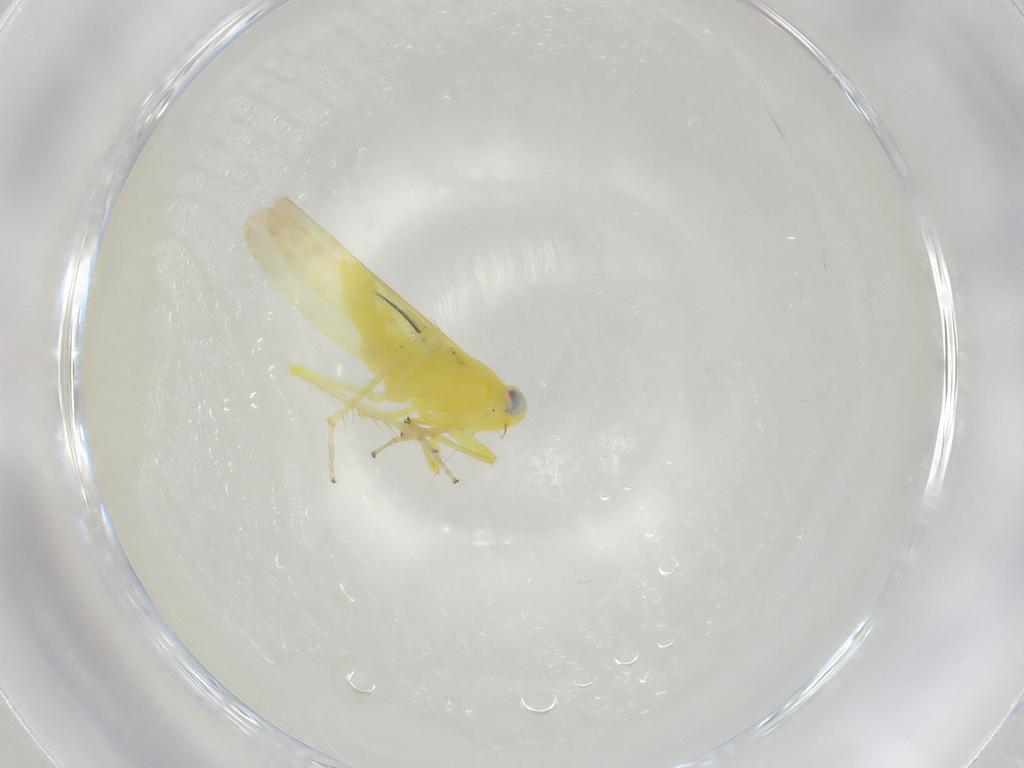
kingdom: Animalia
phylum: Arthropoda
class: Insecta
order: Hemiptera
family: Cicadellidae
